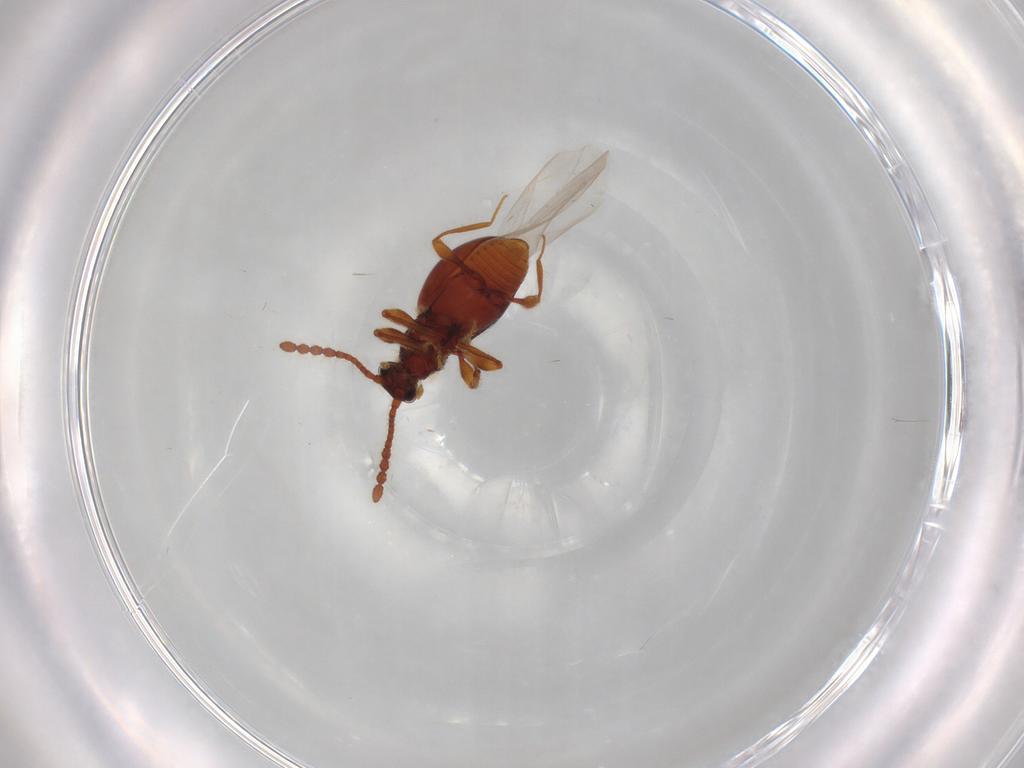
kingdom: Animalia
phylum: Arthropoda
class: Insecta
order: Coleoptera
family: Staphylinidae
